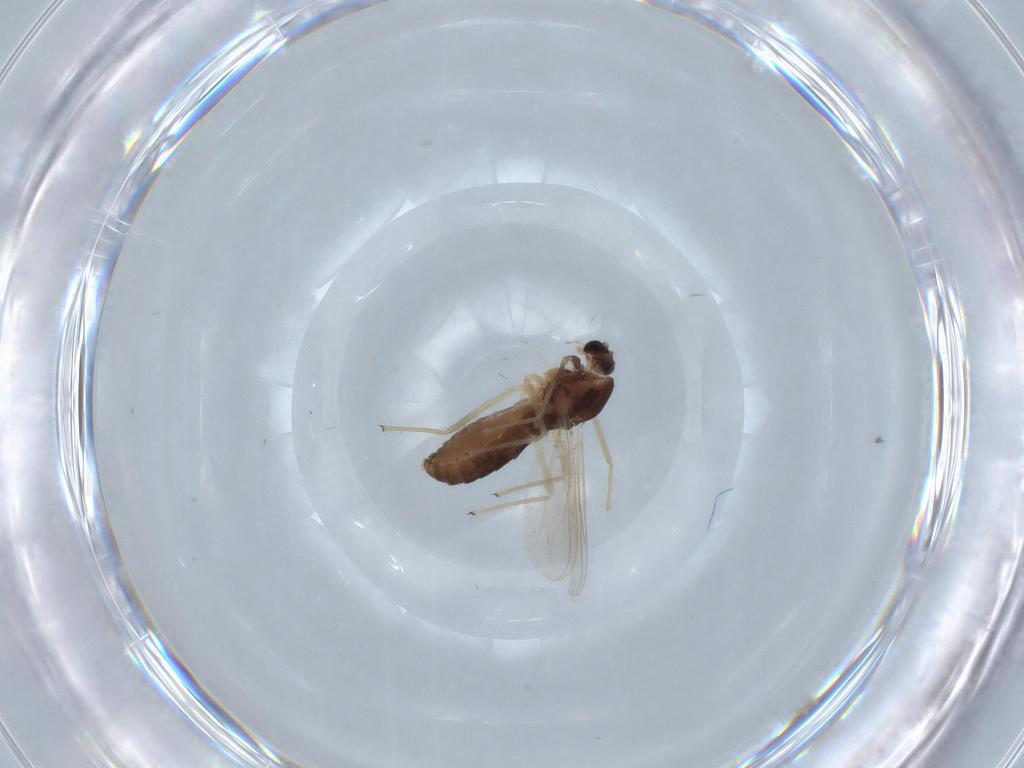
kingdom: Animalia
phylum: Arthropoda
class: Insecta
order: Diptera
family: Chironomidae
